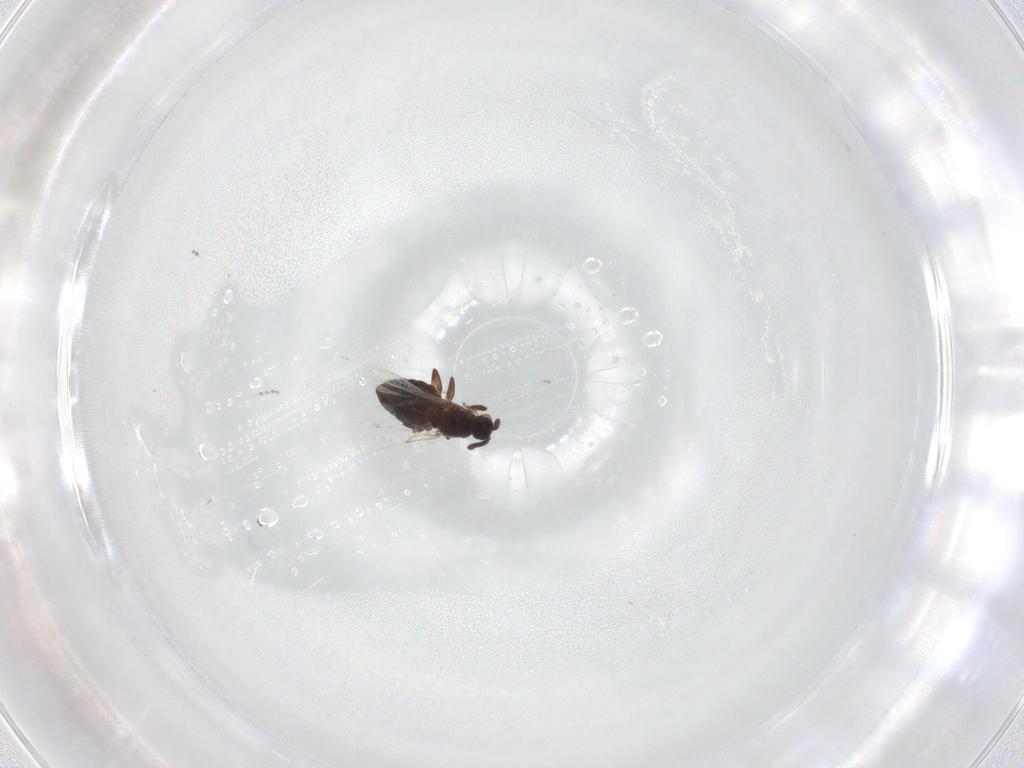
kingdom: Animalia
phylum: Arthropoda
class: Insecta
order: Diptera
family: Scatopsidae
